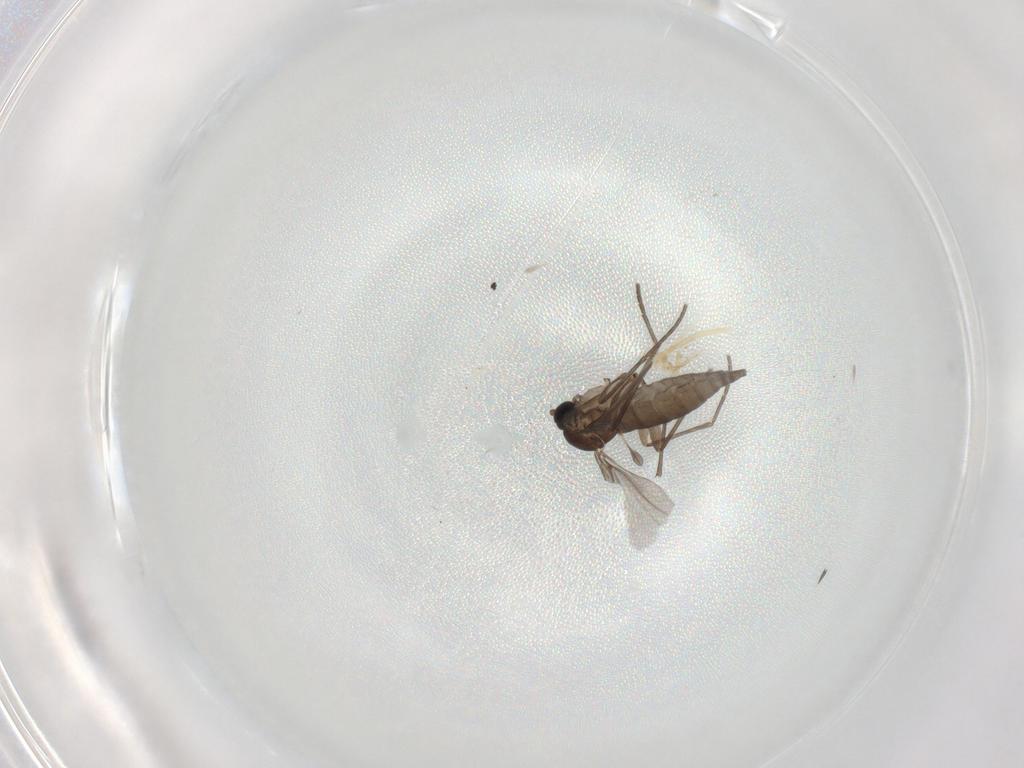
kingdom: Animalia
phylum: Arthropoda
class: Insecta
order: Diptera
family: Sciaridae
